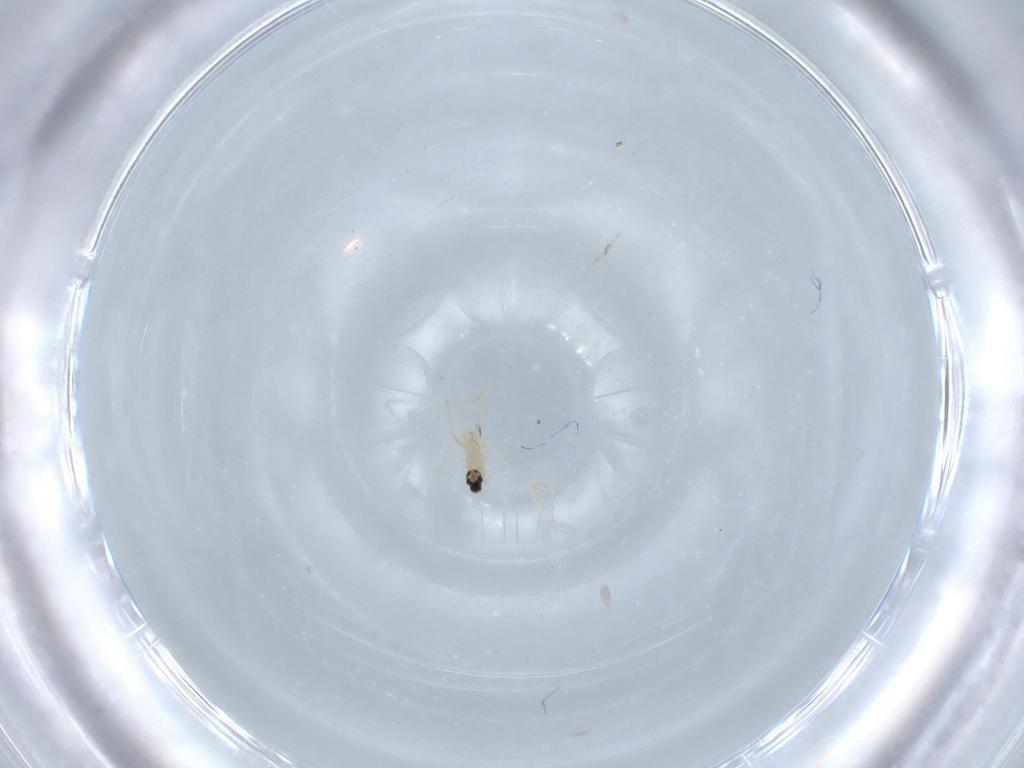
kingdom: Animalia
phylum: Arthropoda
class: Insecta
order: Diptera
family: Cecidomyiidae
